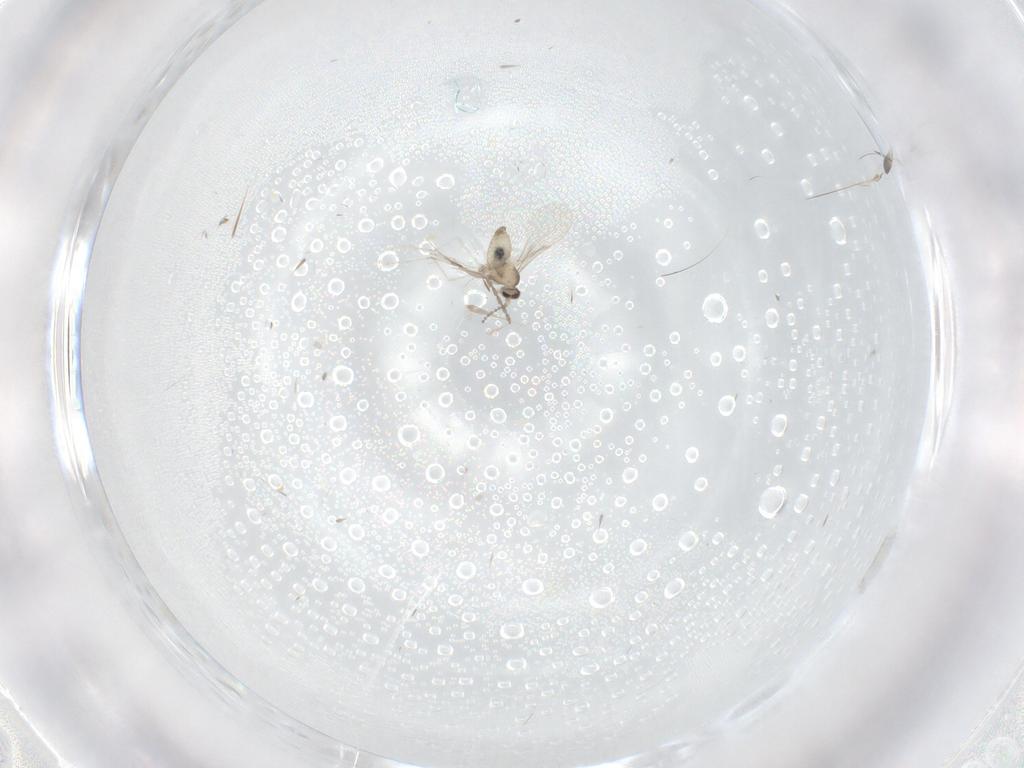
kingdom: Animalia
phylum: Arthropoda
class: Insecta
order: Diptera
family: Cecidomyiidae
